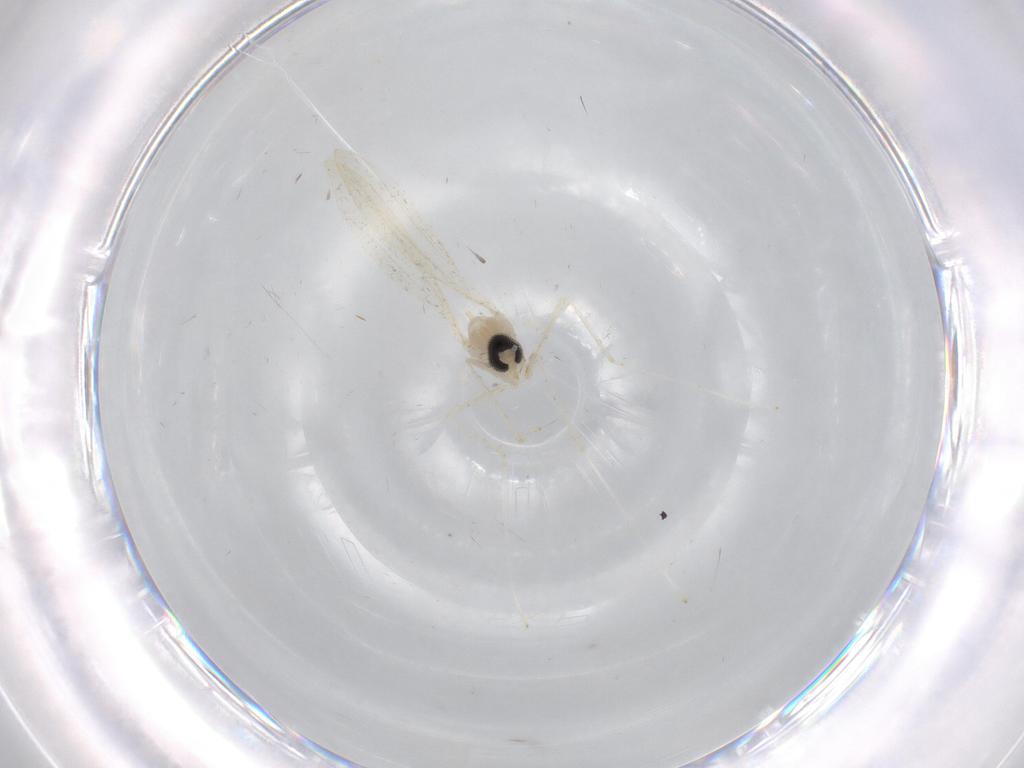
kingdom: Animalia
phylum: Arthropoda
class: Insecta
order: Diptera
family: Cecidomyiidae
